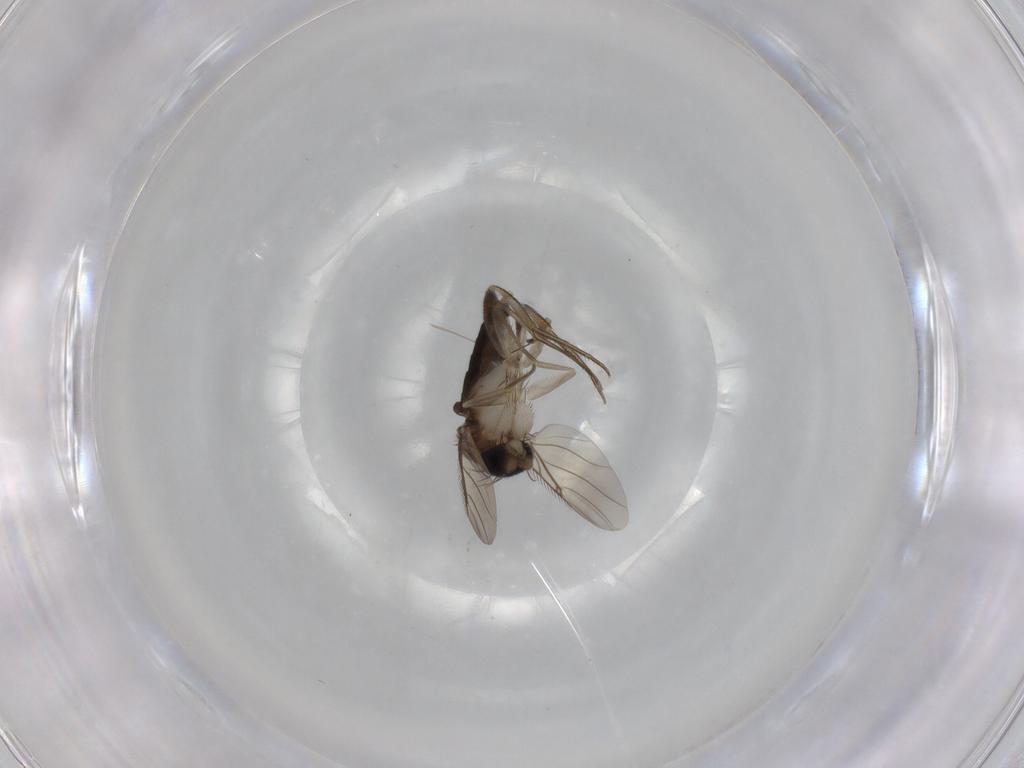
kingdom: Animalia
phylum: Arthropoda
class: Insecta
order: Diptera
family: Phoridae
